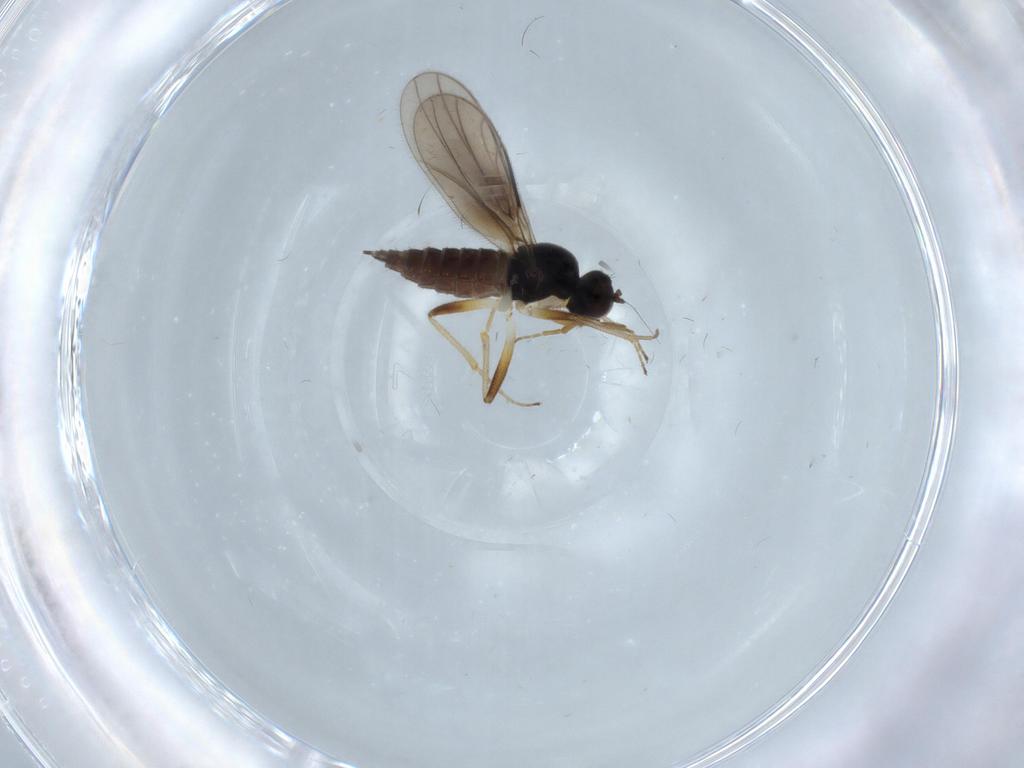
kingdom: Animalia
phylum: Arthropoda
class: Insecta
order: Diptera
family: Hybotidae
